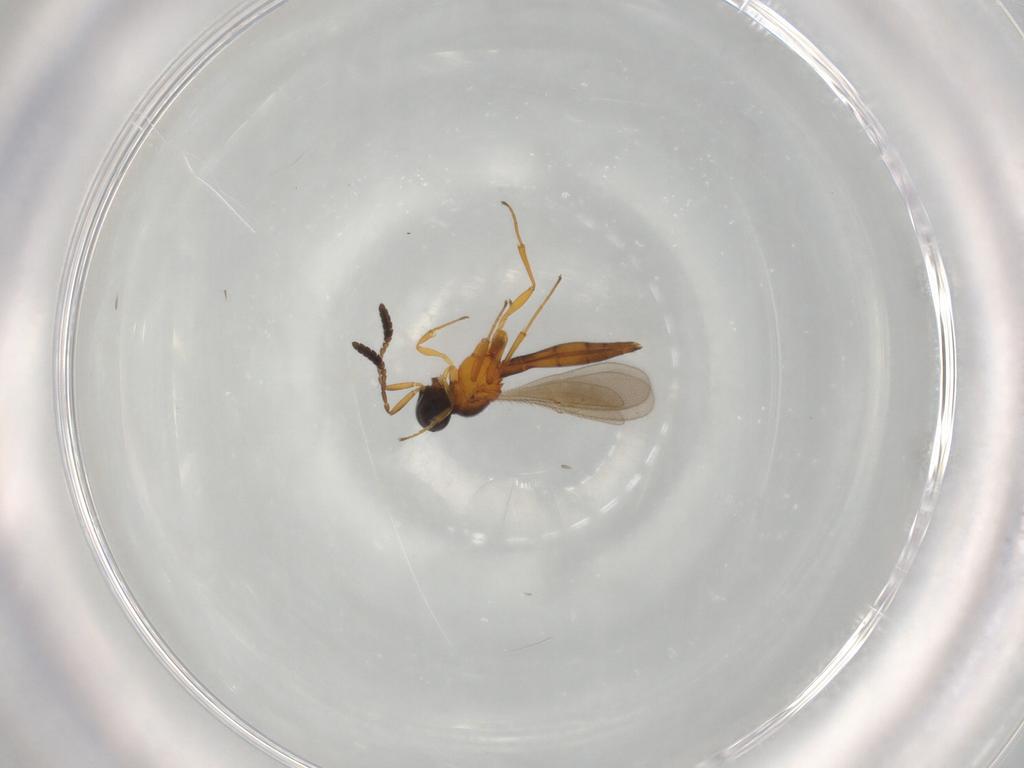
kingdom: Animalia
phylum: Arthropoda
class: Insecta
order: Hymenoptera
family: Scelionidae
